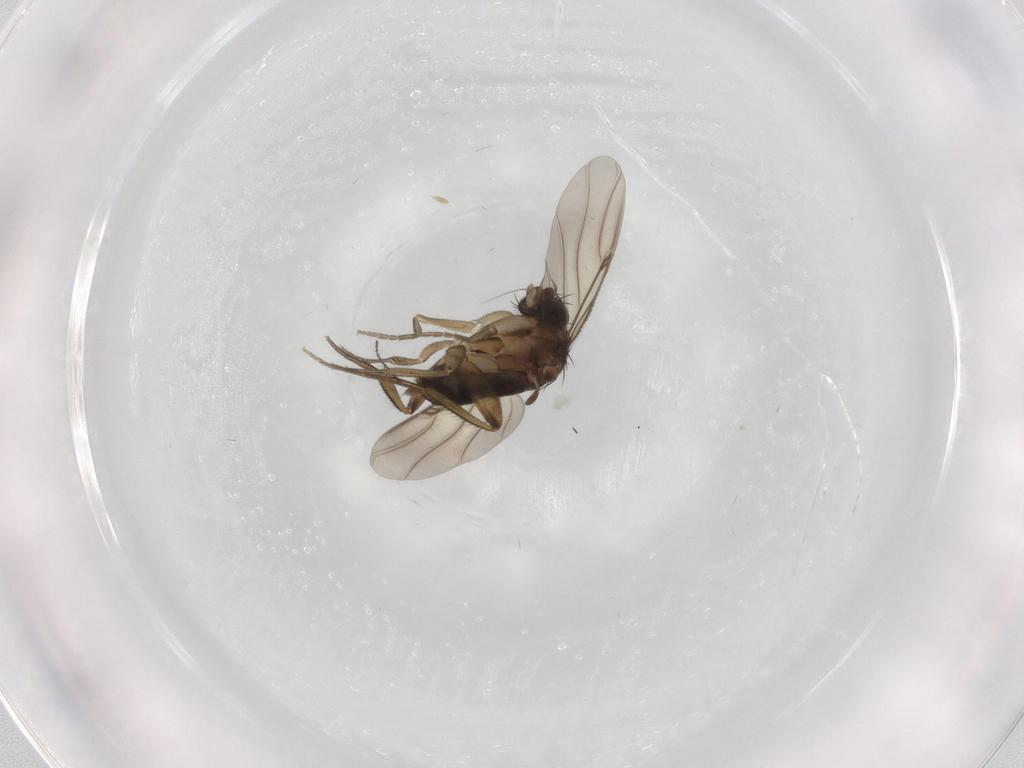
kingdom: Animalia
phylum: Arthropoda
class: Insecta
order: Diptera
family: Phoridae
